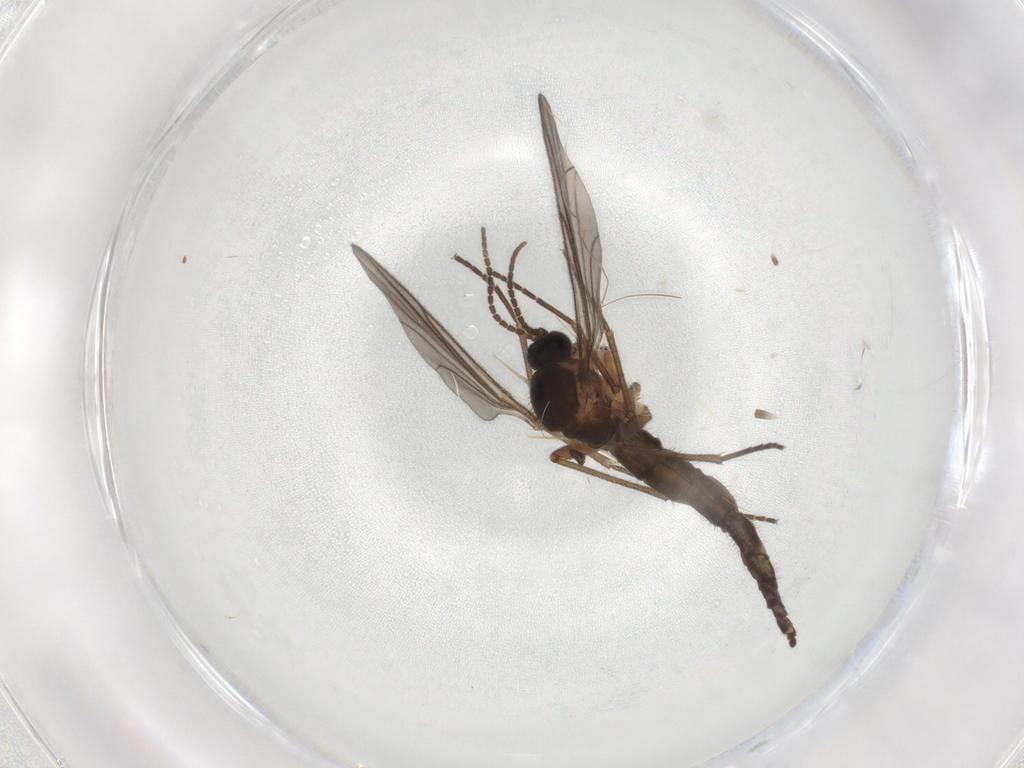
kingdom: Animalia
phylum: Arthropoda
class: Insecta
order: Diptera
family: Sciaridae
